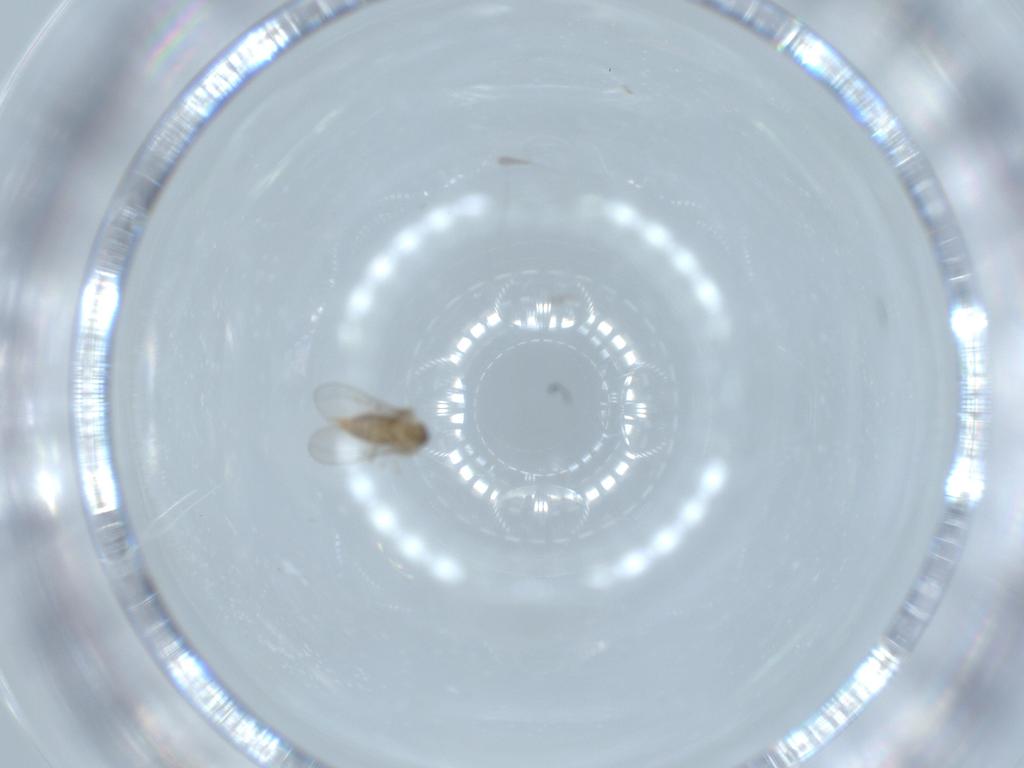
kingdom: Animalia
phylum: Arthropoda
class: Insecta
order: Diptera
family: Cecidomyiidae
